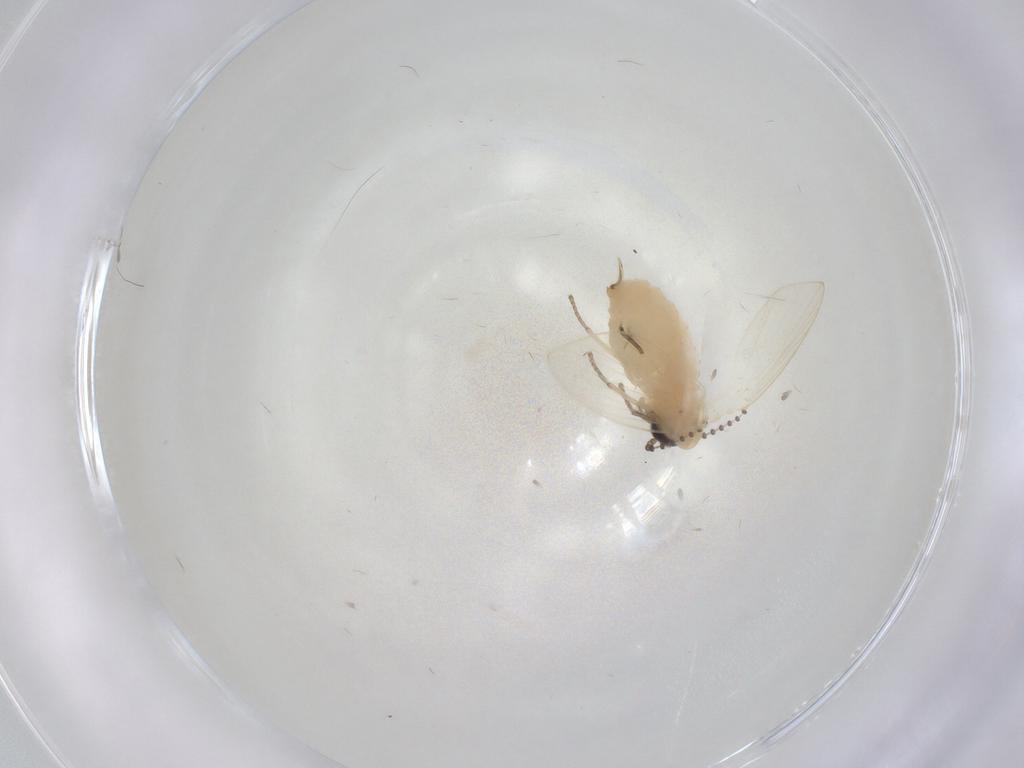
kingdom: Animalia
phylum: Arthropoda
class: Insecta
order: Diptera
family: Psychodidae
